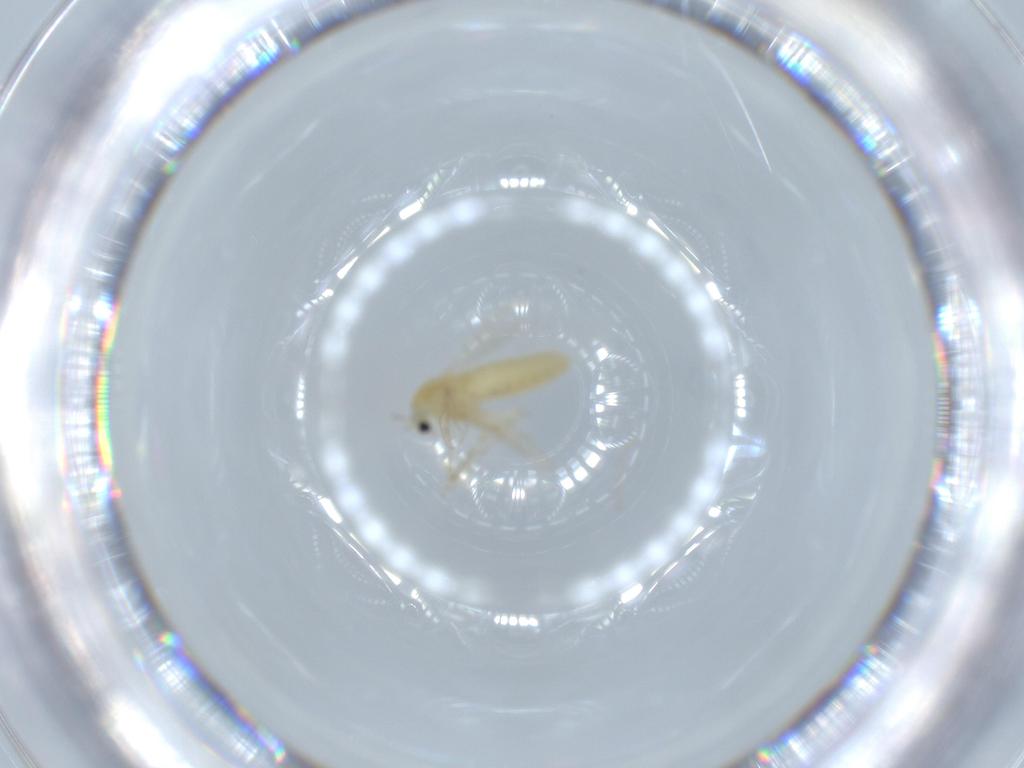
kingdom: Animalia
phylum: Arthropoda
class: Insecta
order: Diptera
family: Chironomidae
